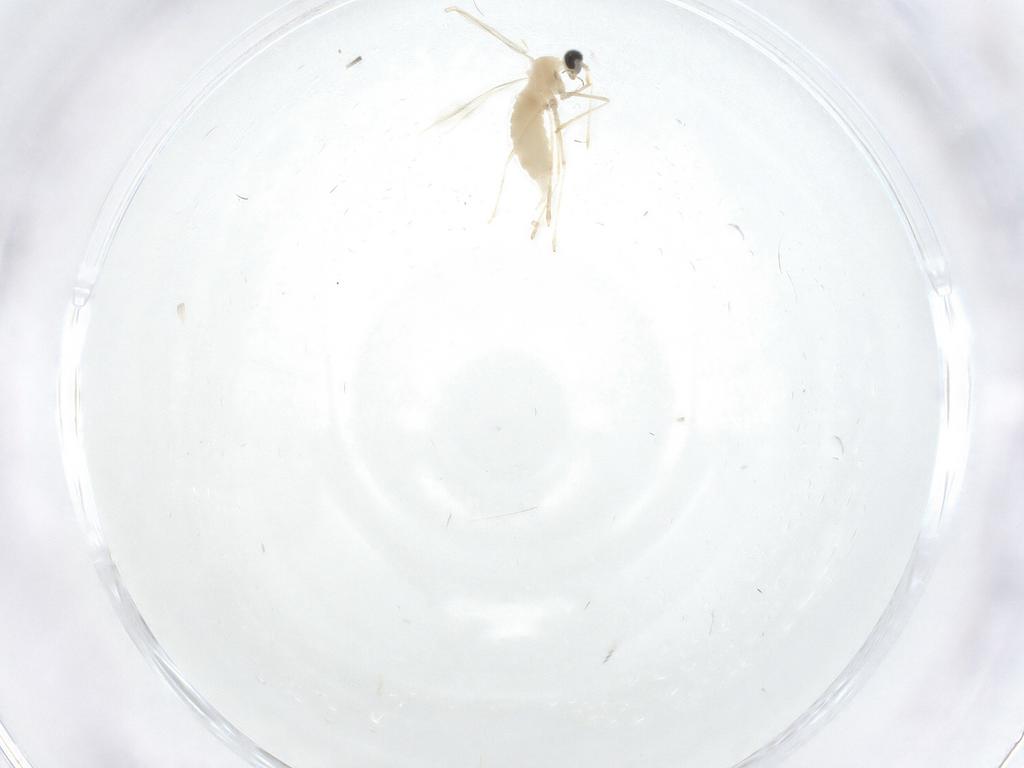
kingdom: Animalia
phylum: Arthropoda
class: Insecta
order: Diptera
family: Cecidomyiidae
